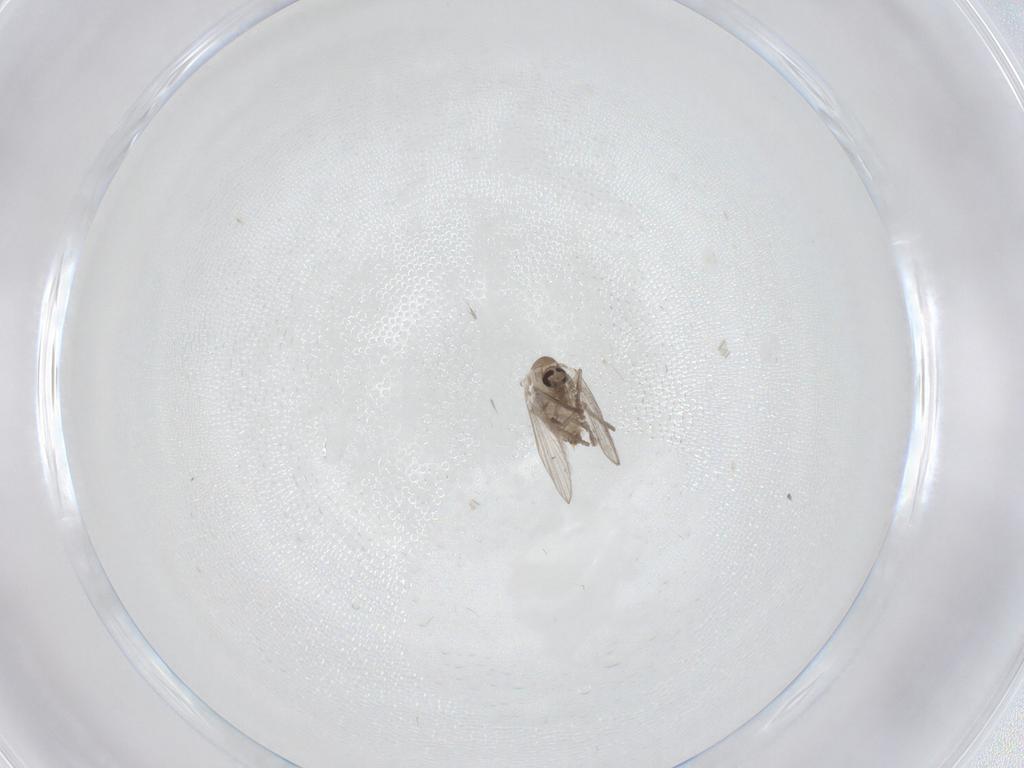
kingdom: Animalia
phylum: Arthropoda
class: Insecta
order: Diptera
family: Psychodidae
